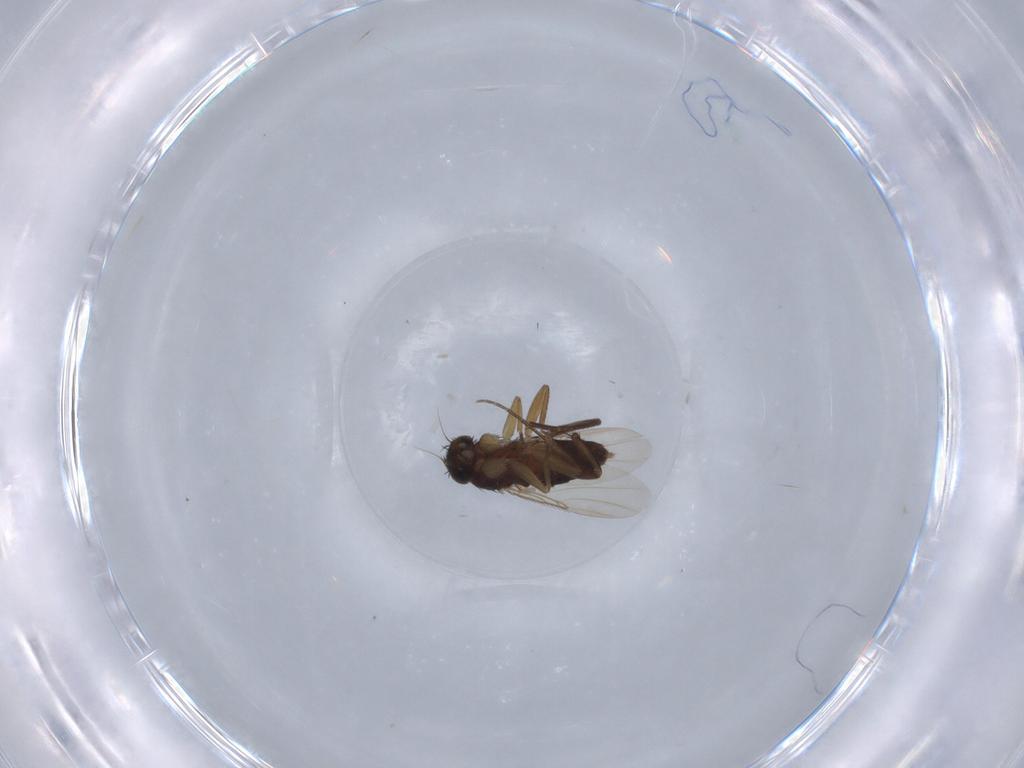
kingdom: Animalia
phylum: Arthropoda
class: Insecta
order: Diptera
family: Phoridae
